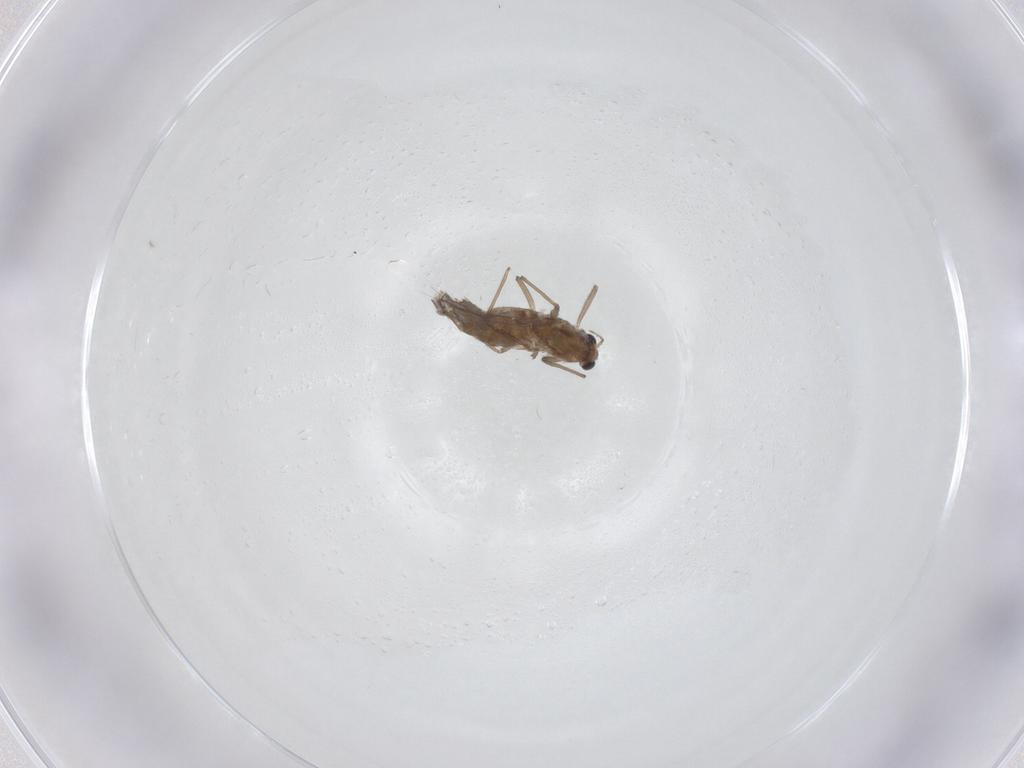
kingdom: Animalia
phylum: Arthropoda
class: Insecta
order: Diptera
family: Chironomidae
